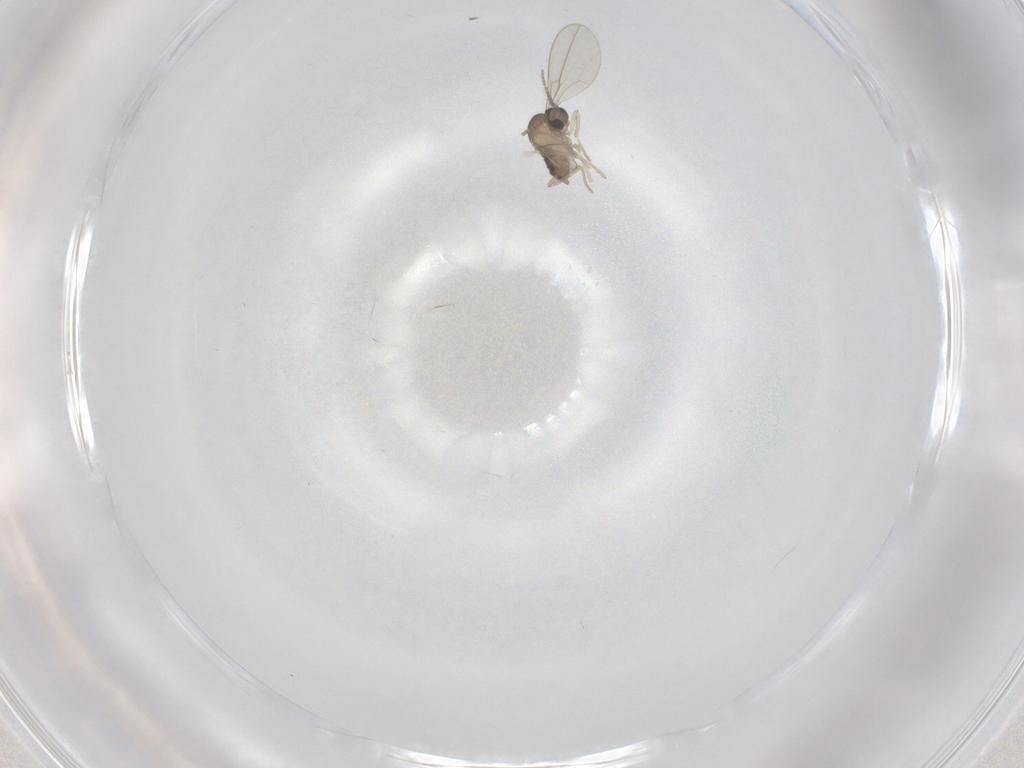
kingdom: Animalia
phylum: Arthropoda
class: Insecta
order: Diptera
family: Cecidomyiidae
